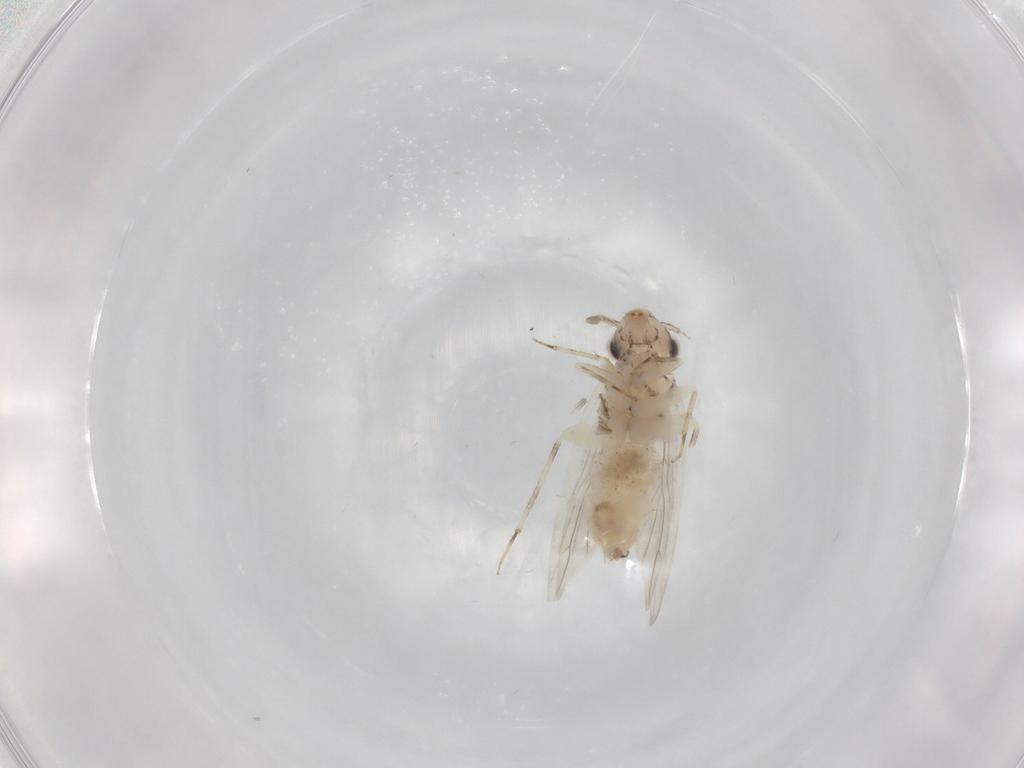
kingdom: Animalia
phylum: Arthropoda
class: Insecta
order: Psocodea
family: Lepidopsocidae
